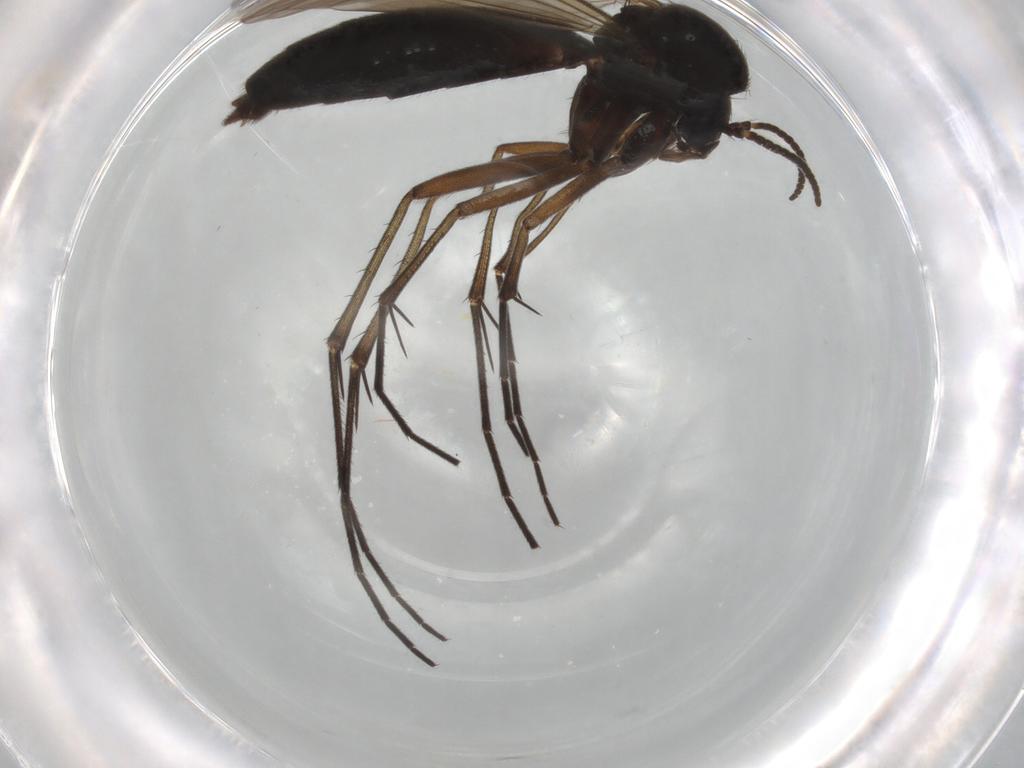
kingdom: Animalia
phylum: Arthropoda
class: Insecta
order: Diptera
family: Mycetophilidae
